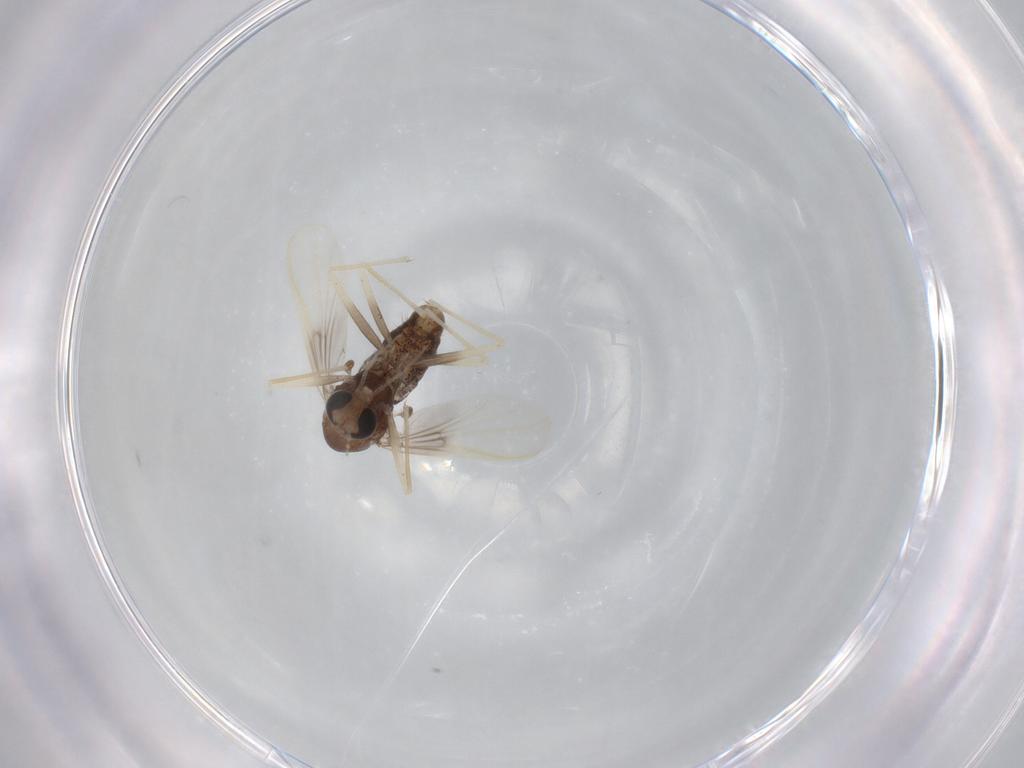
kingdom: Animalia
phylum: Arthropoda
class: Insecta
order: Diptera
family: Chironomidae
